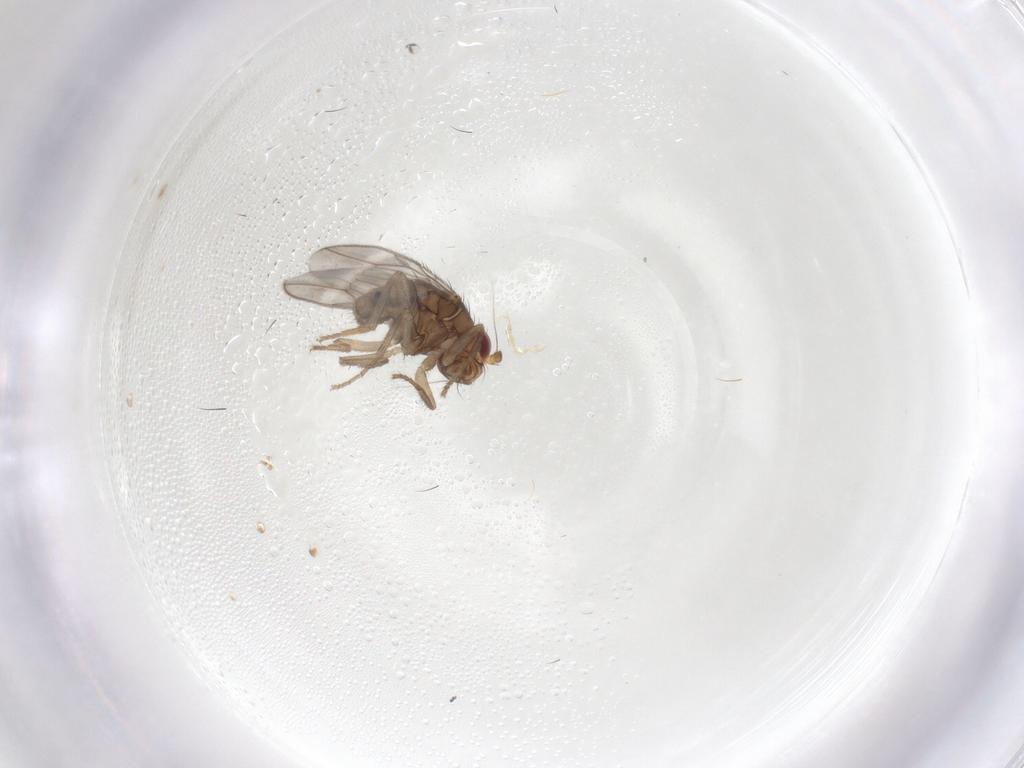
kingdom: Animalia
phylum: Arthropoda
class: Insecta
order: Diptera
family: Sphaeroceridae
